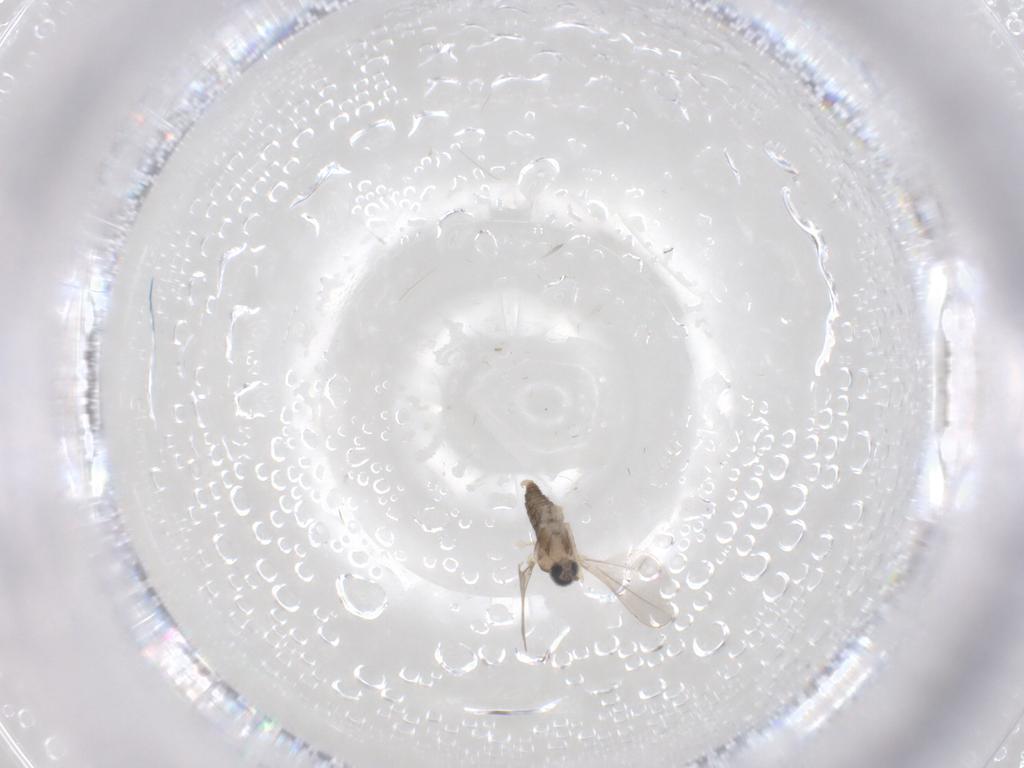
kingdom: Animalia
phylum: Arthropoda
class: Insecta
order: Diptera
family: Cecidomyiidae
